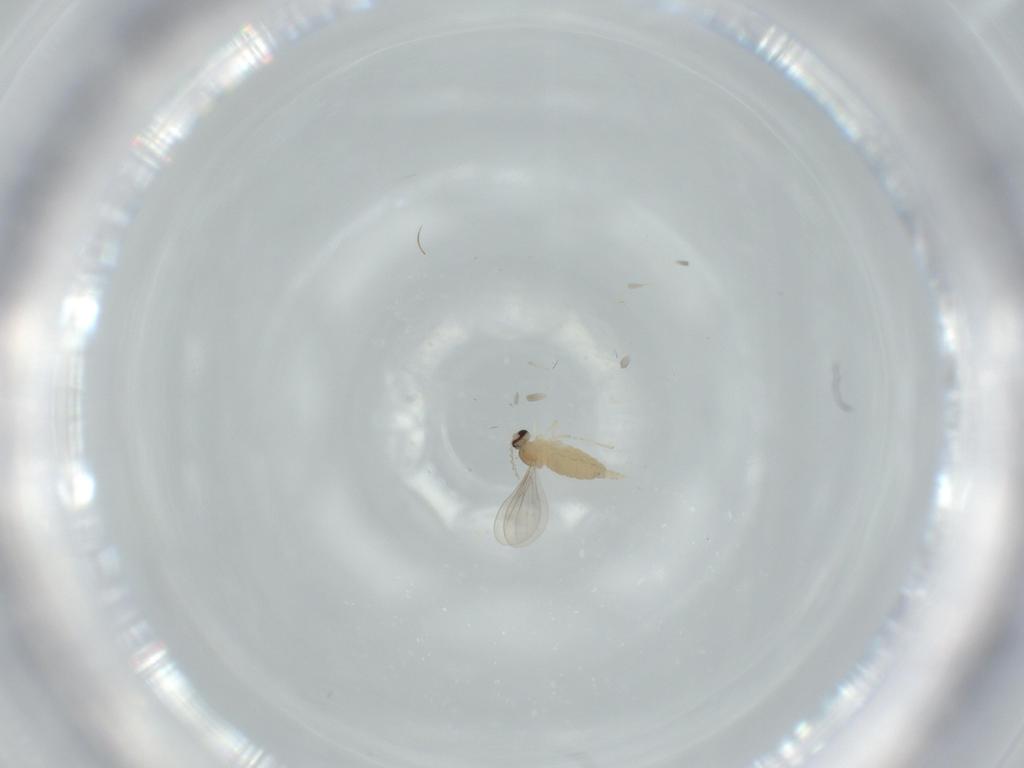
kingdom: Animalia
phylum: Arthropoda
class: Insecta
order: Diptera
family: Cecidomyiidae
